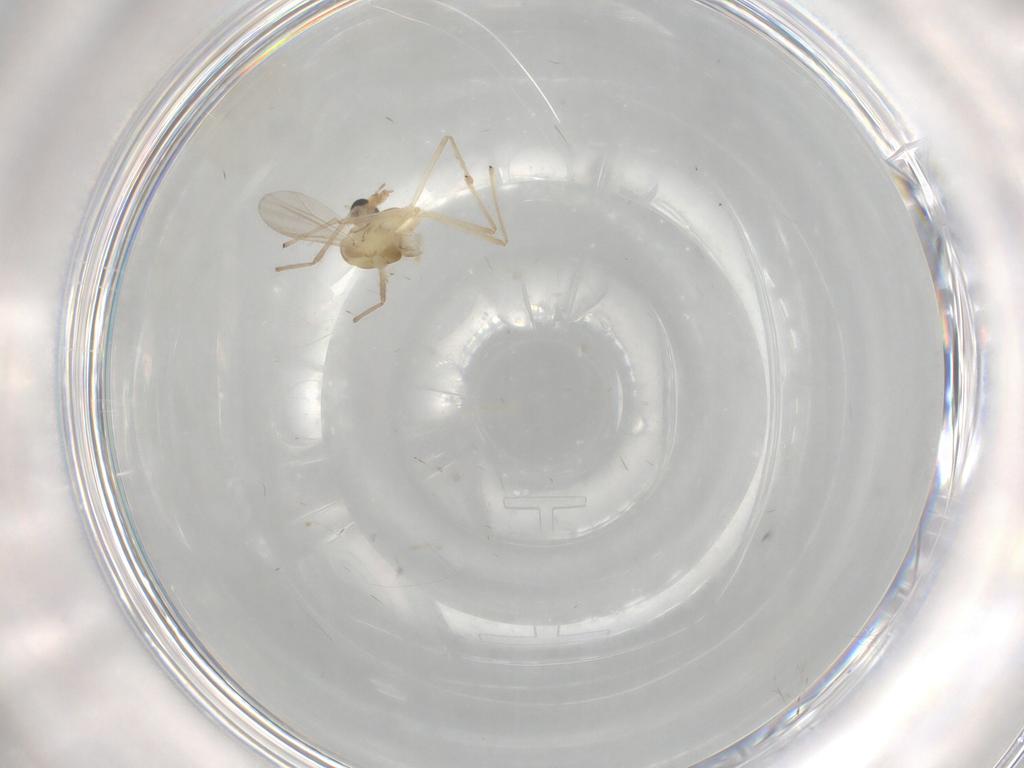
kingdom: Animalia
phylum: Arthropoda
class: Insecta
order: Diptera
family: Chironomidae
